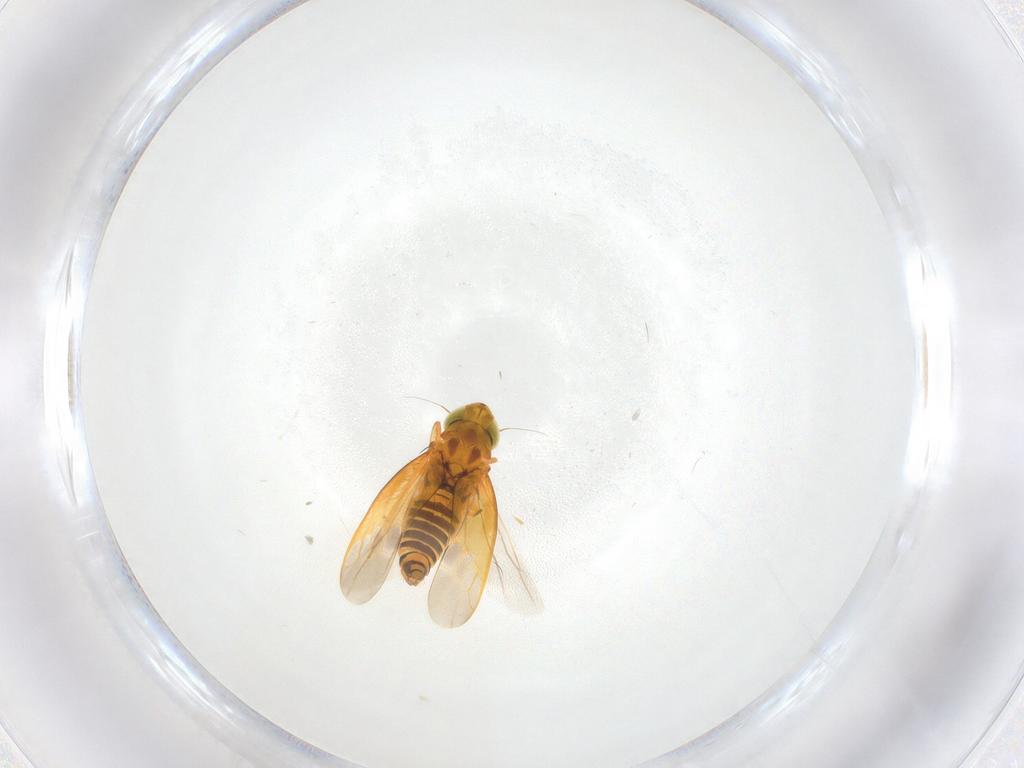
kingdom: Animalia
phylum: Arthropoda
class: Insecta
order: Hemiptera
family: Cicadellidae
